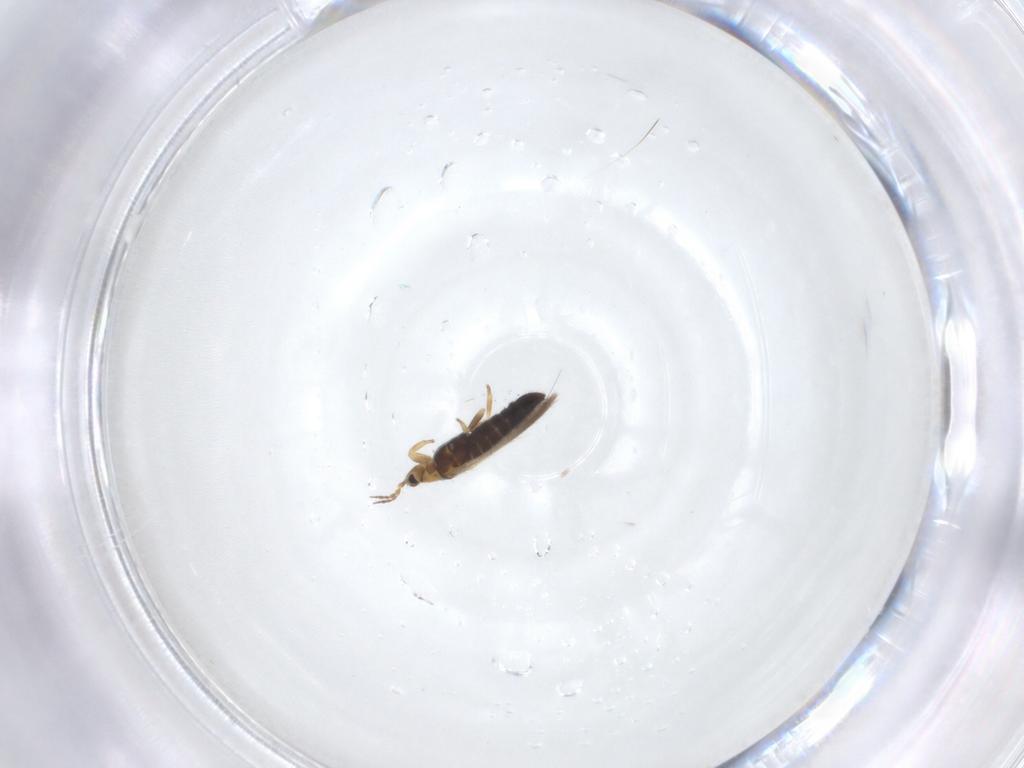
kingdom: Animalia
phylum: Arthropoda
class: Insecta
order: Thysanoptera
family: Melanthripidae
